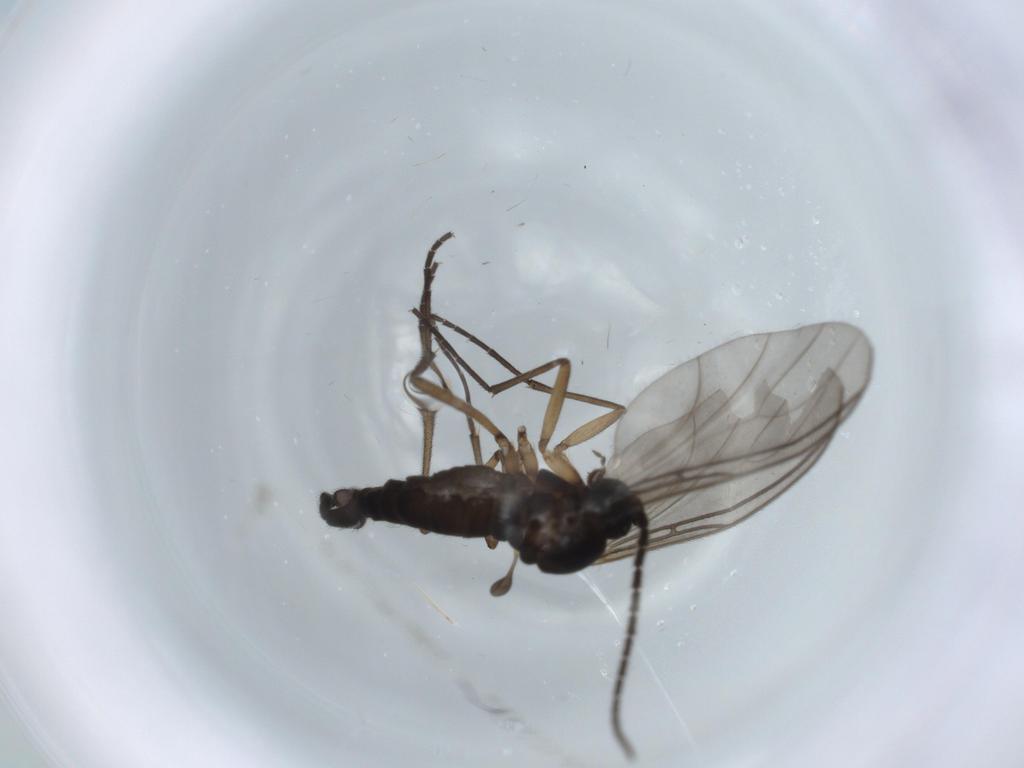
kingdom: Animalia
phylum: Arthropoda
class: Insecta
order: Diptera
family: Sciaridae
